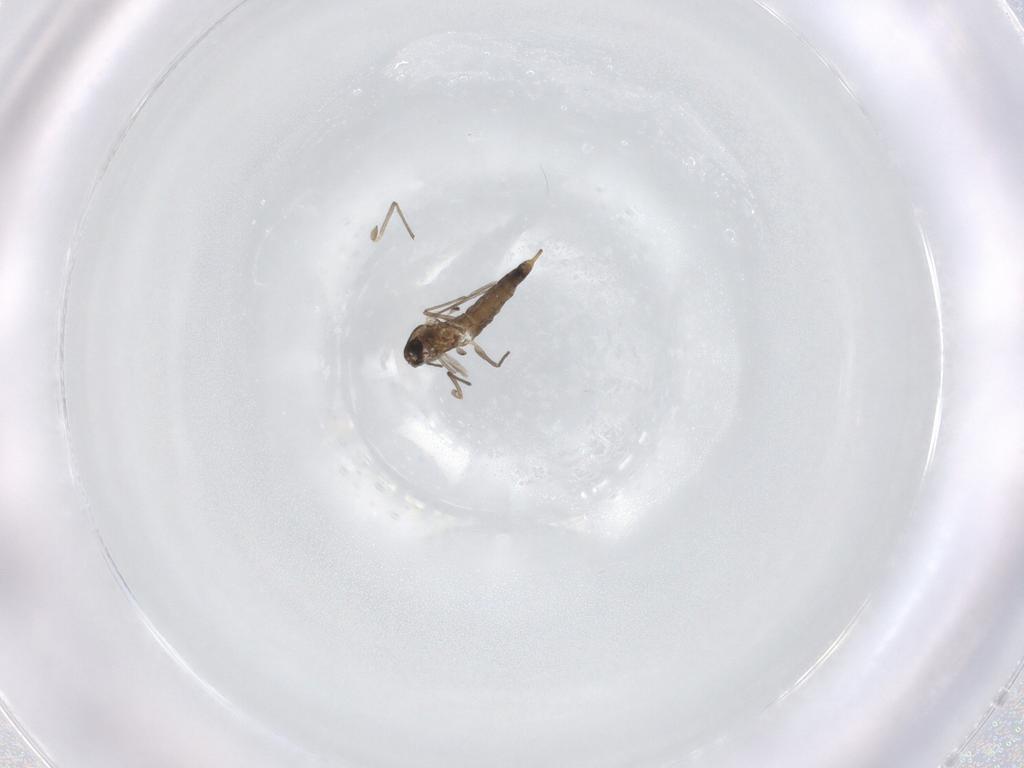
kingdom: Animalia
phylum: Arthropoda
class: Insecta
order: Diptera
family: Chironomidae
